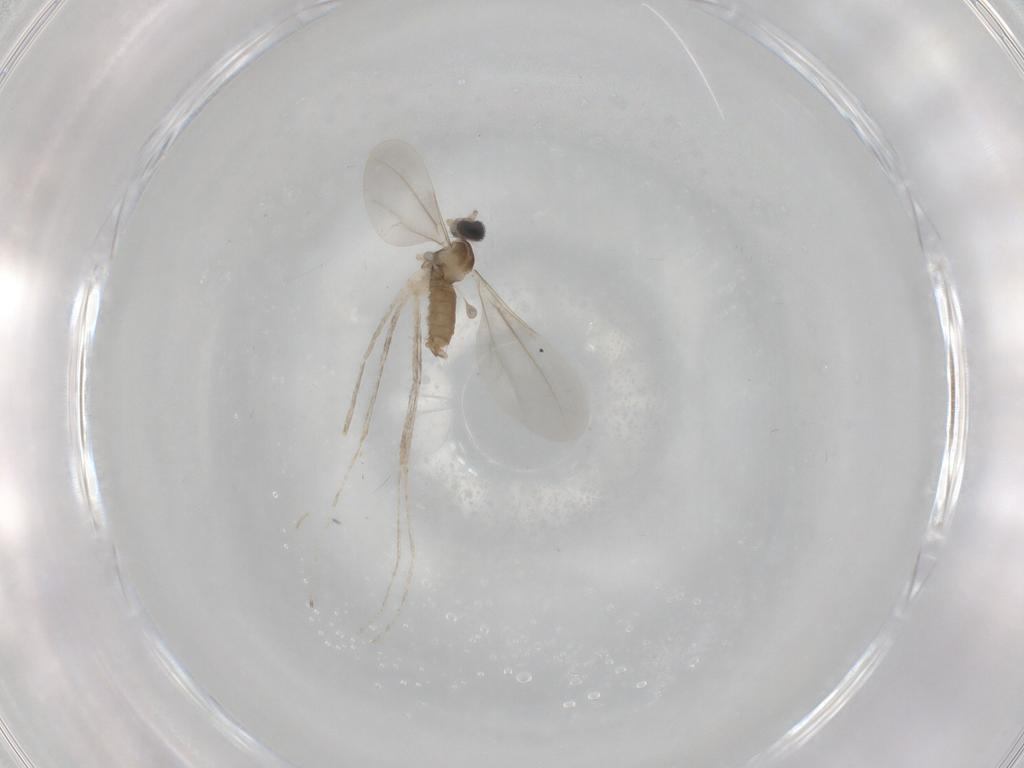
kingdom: Animalia
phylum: Arthropoda
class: Insecta
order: Diptera
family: Cecidomyiidae
